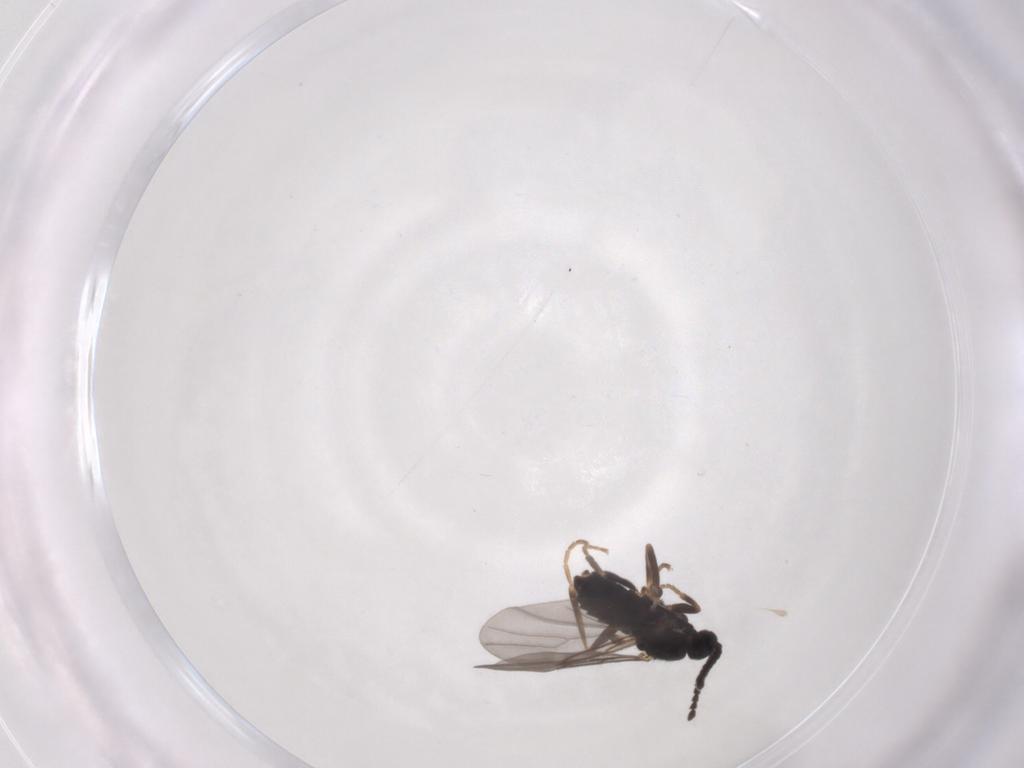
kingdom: Animalia
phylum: Arthropoda
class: Insecta
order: Diptera
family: Scatopsidae
